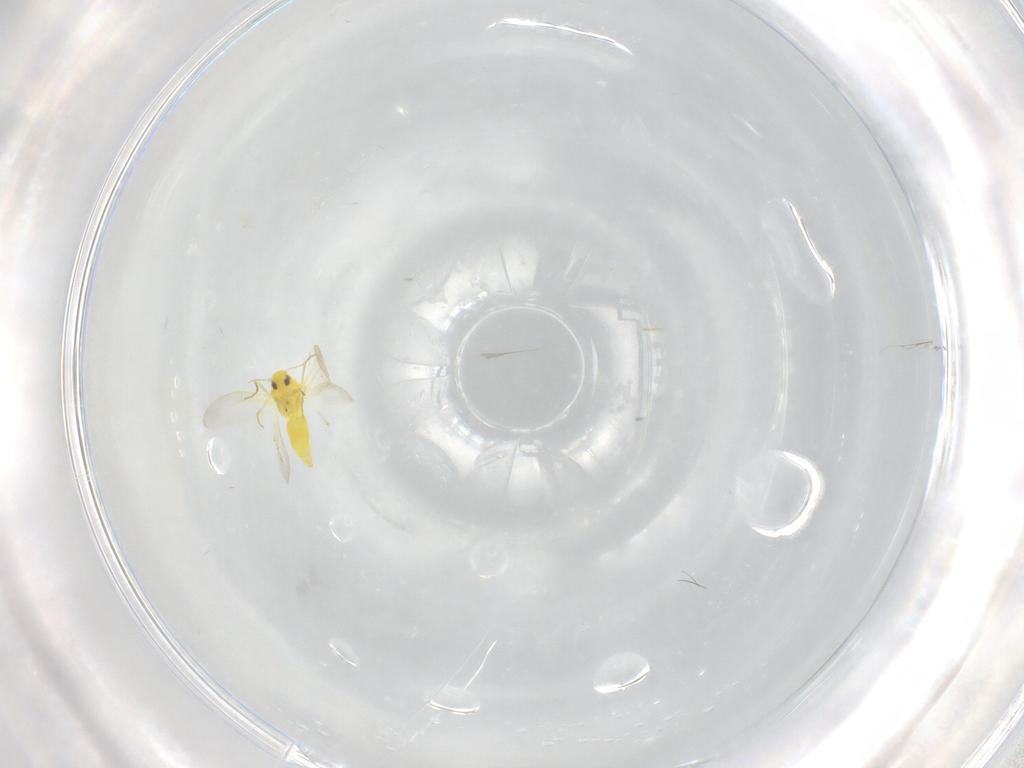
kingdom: Animalia
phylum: Arthropoda
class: Insecta
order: Hemiptera
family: Aleyrodidae
